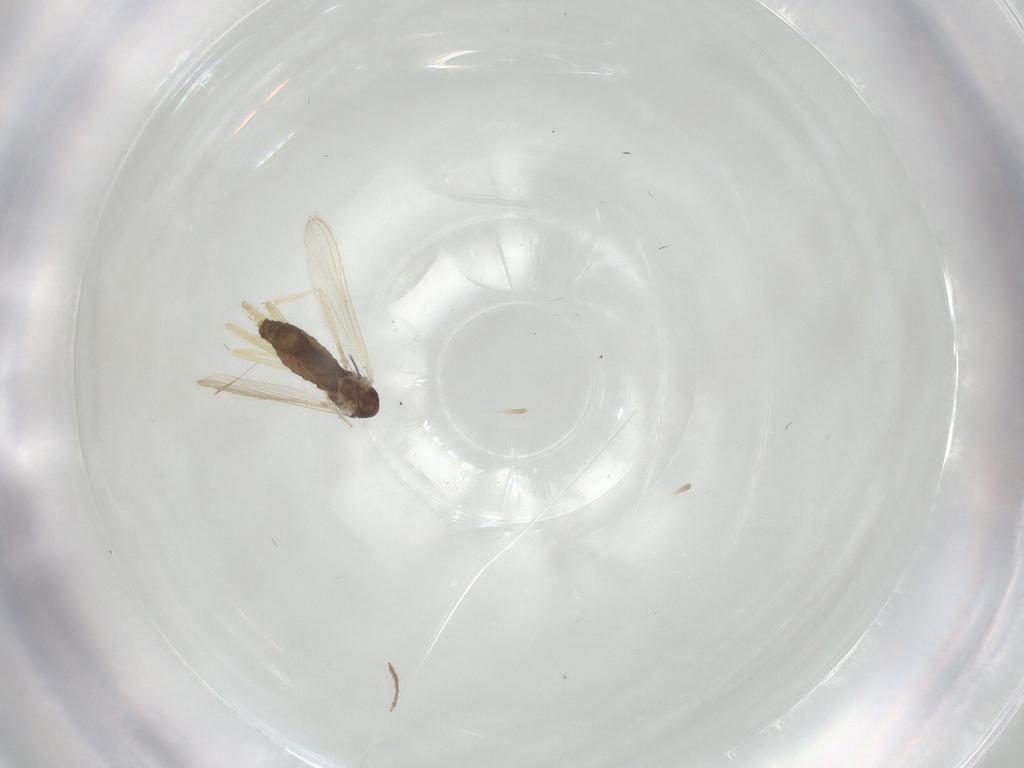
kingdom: Animalia
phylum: Arthropoda
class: Insecta
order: Diptera
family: Chironomidae
